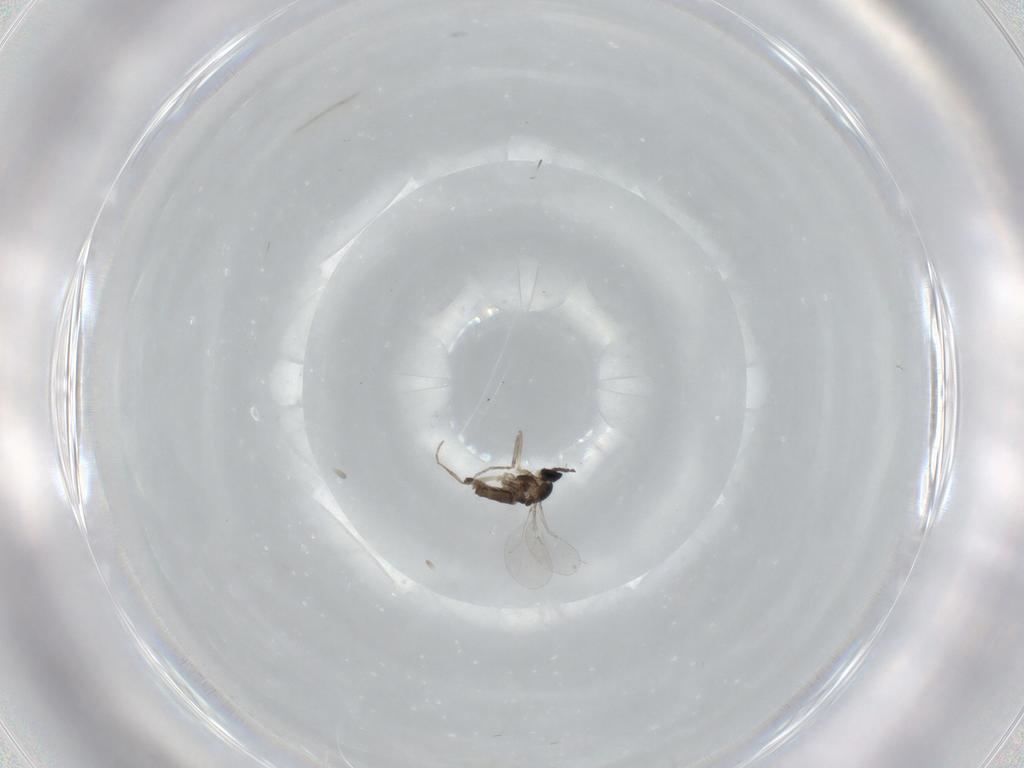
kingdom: Animalia
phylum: Arthropoda
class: Insecta
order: Diptera
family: Cecidomyiidae
